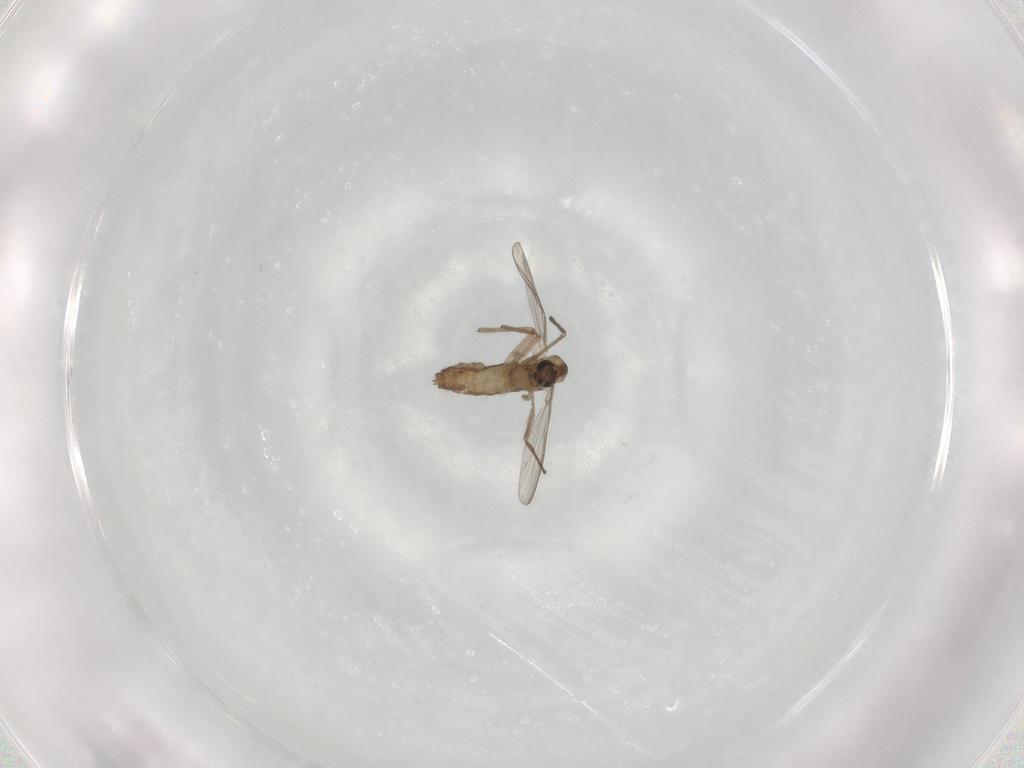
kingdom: Animalia
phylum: Arthropoda
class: Insecta
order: Diptera
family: Chironomidae
